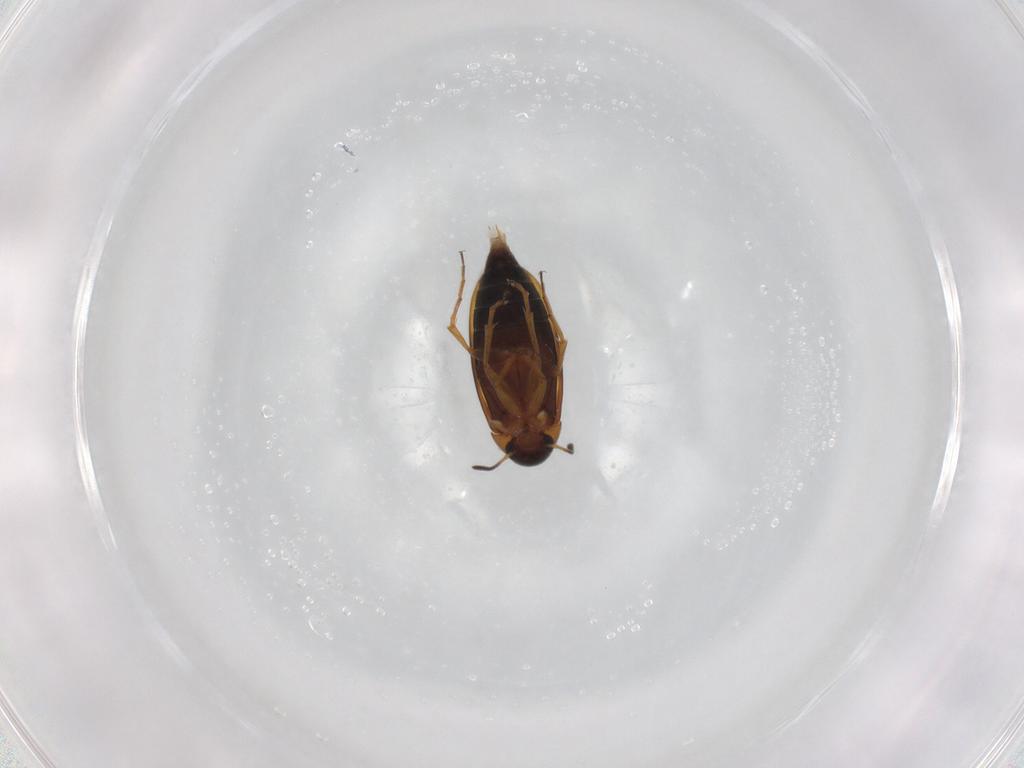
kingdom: Animalia
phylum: Arthropoda
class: Insecta
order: Coleoptera
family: Scraptiidae
